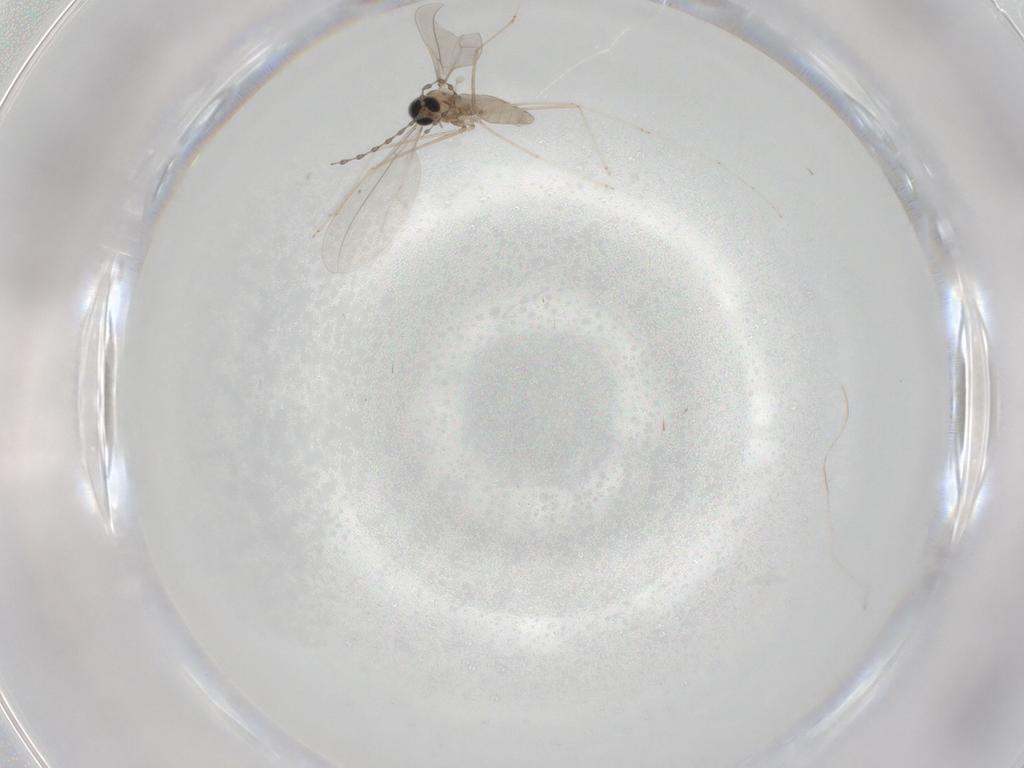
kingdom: Animalia
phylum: Arthropoda
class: Insecta
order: Diptera
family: Cecidomyiidae
